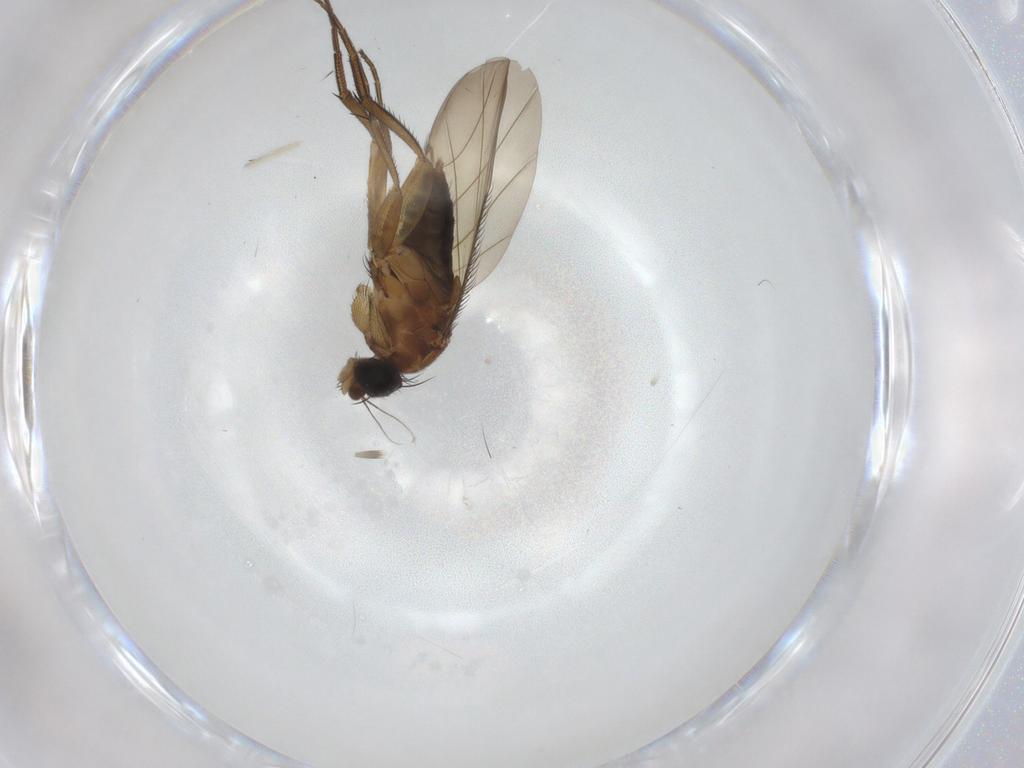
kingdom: Animalia
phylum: Arthropoda
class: Insecta
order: Diptera
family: Phoridae
